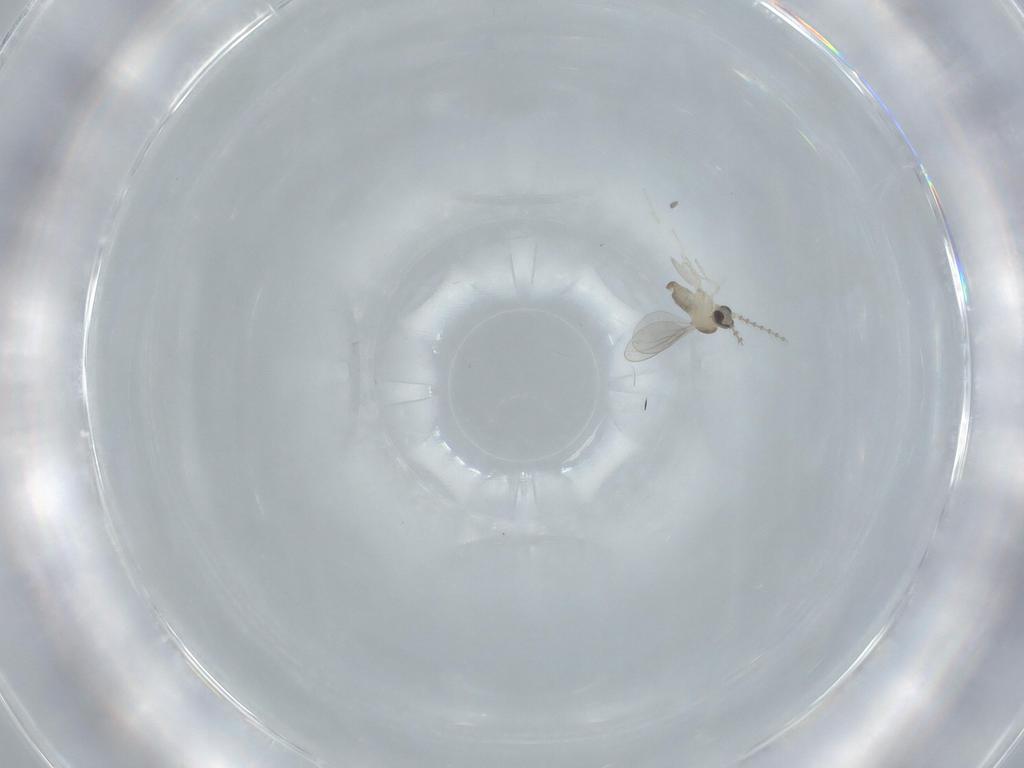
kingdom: Animalia
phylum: Arthropoda
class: Insecta
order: Diptera
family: Cecidomyiidae
